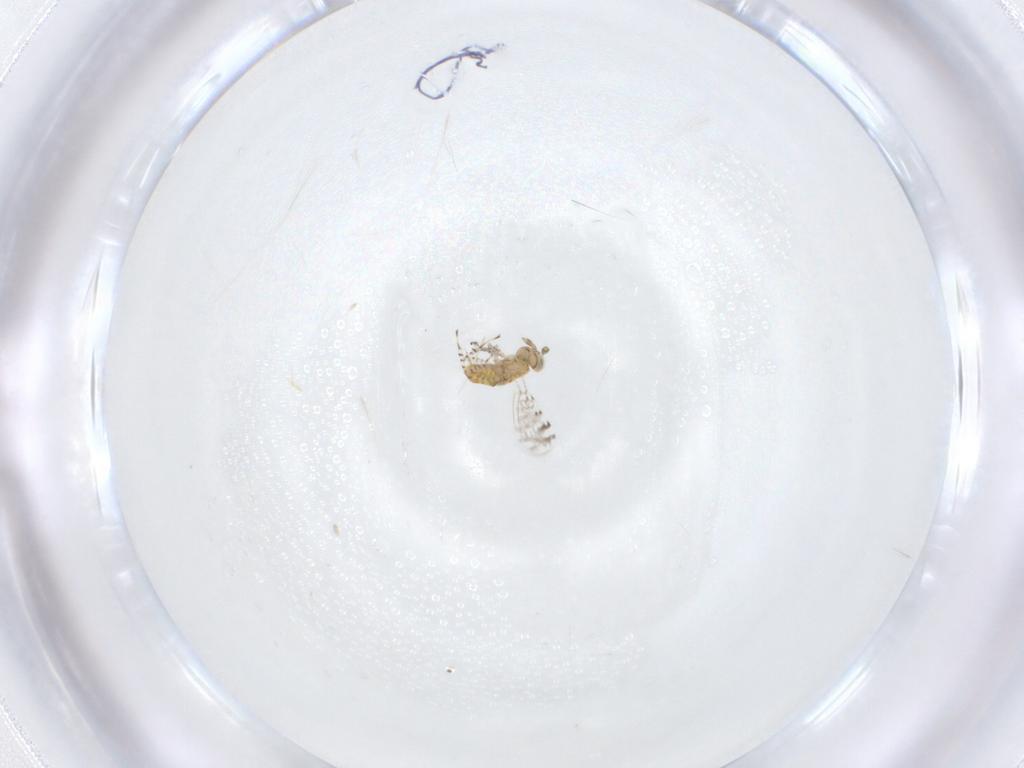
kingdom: Animalia
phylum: Arthropoda
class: Insecta
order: Hymenoptera
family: Aphelinidae
